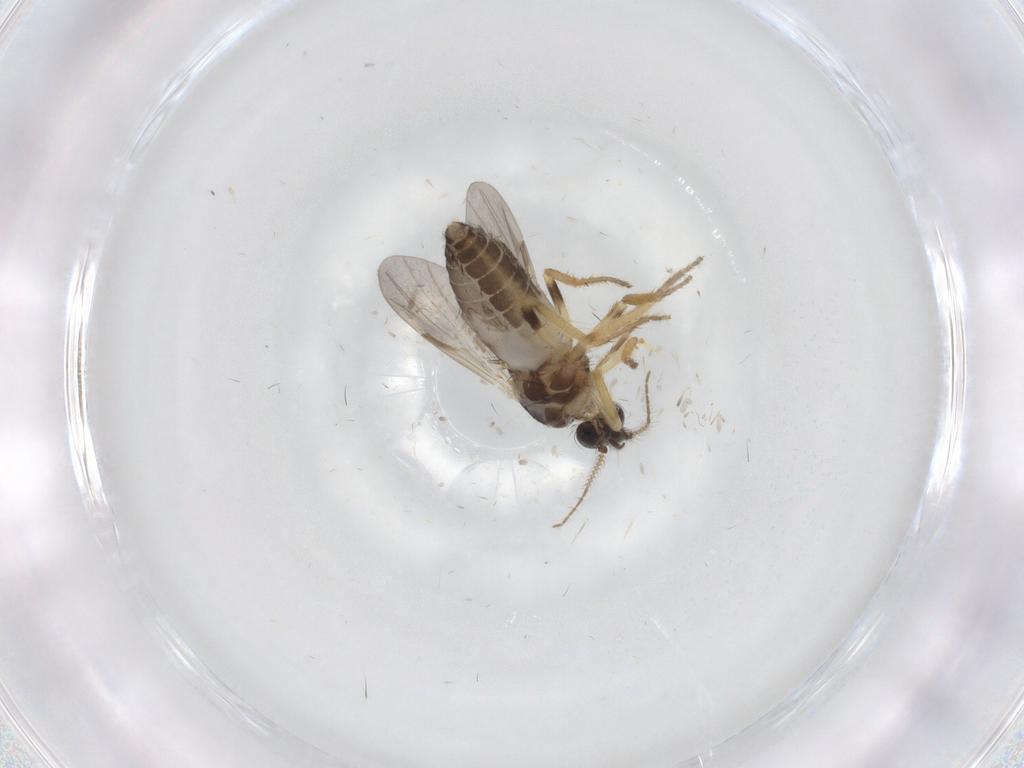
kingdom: Animalia
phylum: Arthropoda
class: Insecta
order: Diptera
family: Ceratopogonidae
